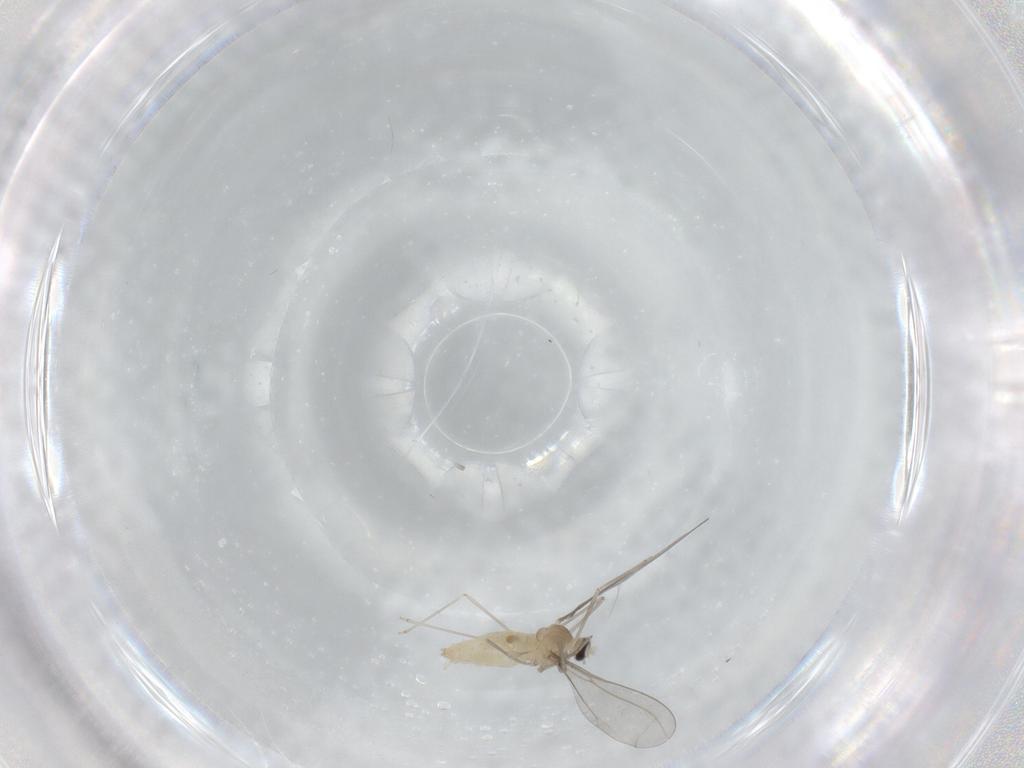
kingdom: Animalia
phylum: Arthropoda
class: Insecta
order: Diptera
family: Cecidomyiidae
